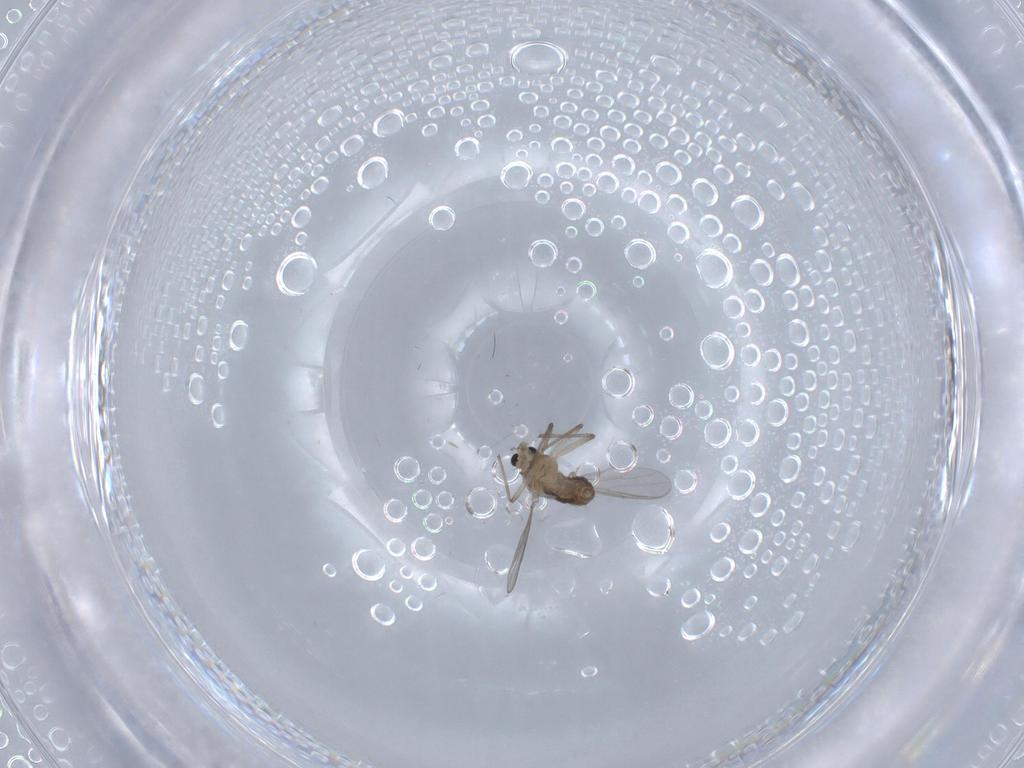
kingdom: Animalia
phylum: Arthropoda
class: Insecta
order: Diptera
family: Chironomidae
